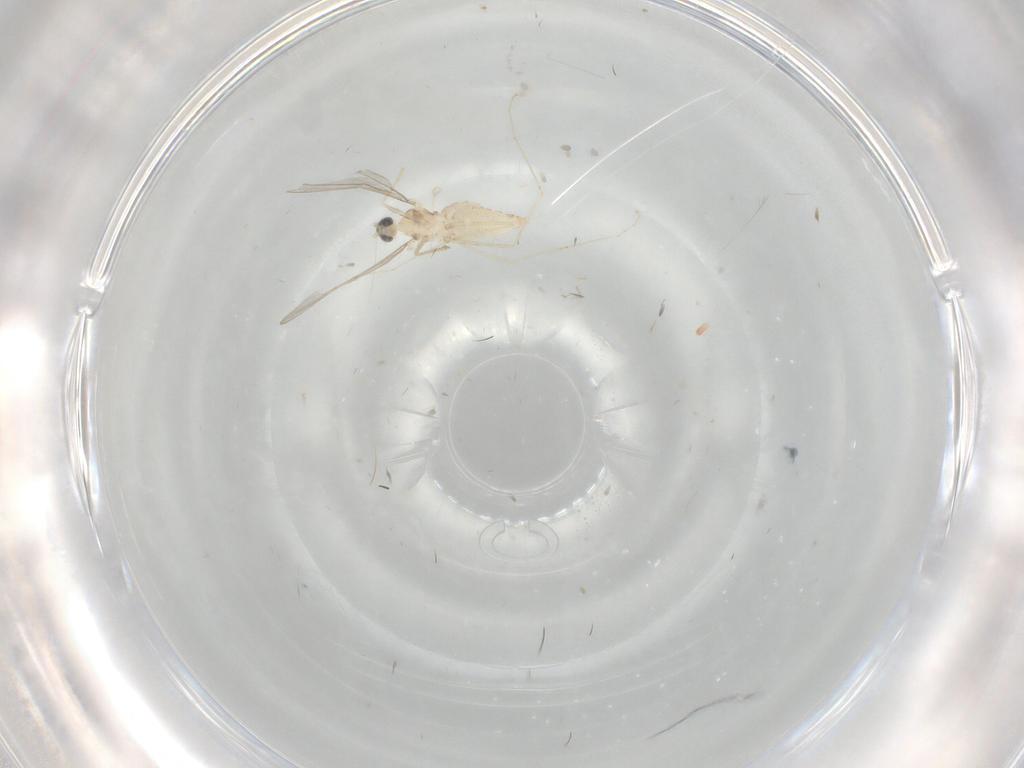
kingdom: Animalia
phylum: Arthropoda
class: Insecta
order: Diptera
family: Cecidomyiidae
